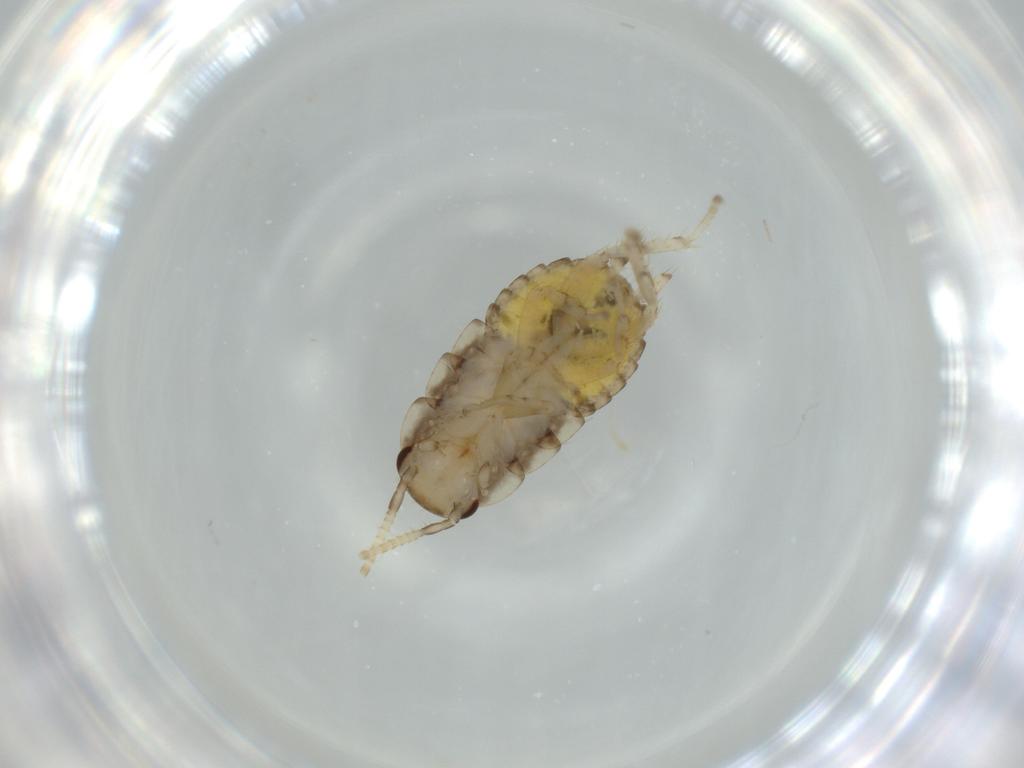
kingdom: Animalia
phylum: Arthropoda
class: Insecta
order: Blattodea
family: Ectobiidae
